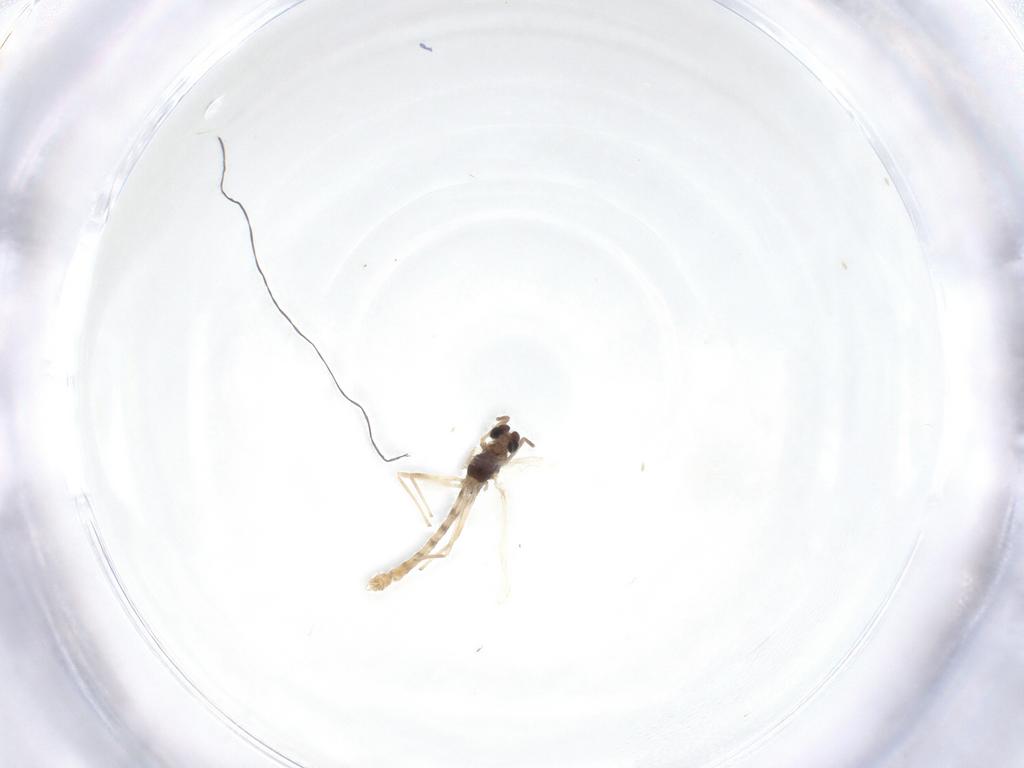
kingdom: Animalia
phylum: Arthropoda
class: Insecta
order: Diptera
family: Chironomidae
